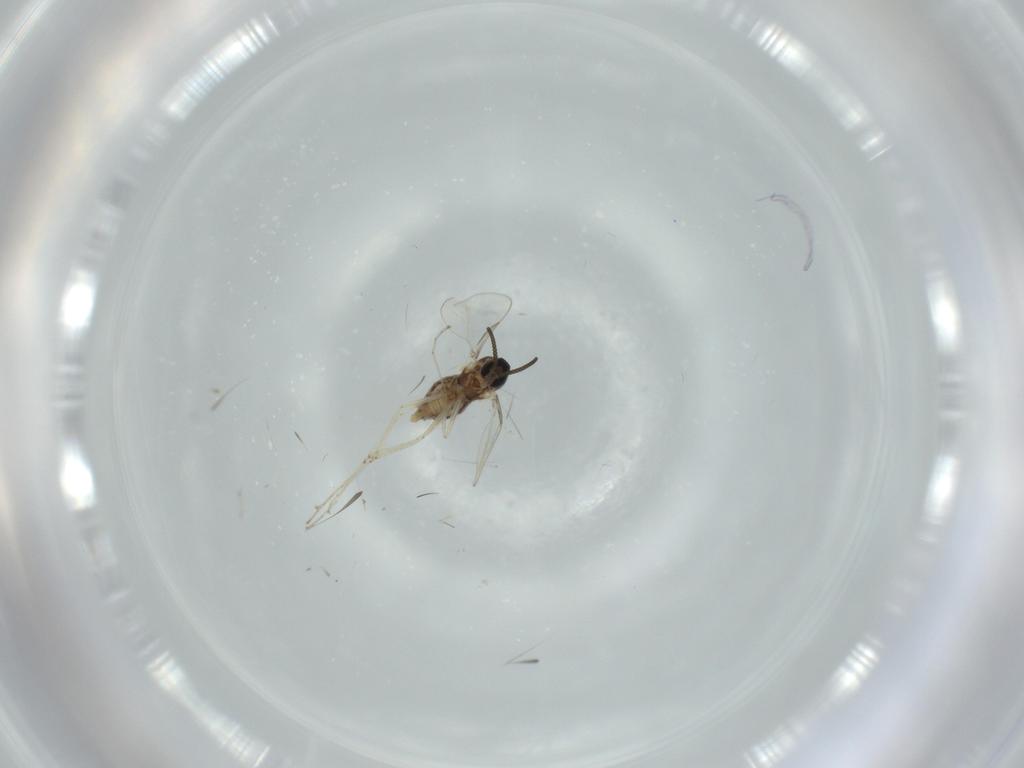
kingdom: Animalia
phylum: Arthropoda
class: Insecta
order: Diptera
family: Cecidomyiidae
